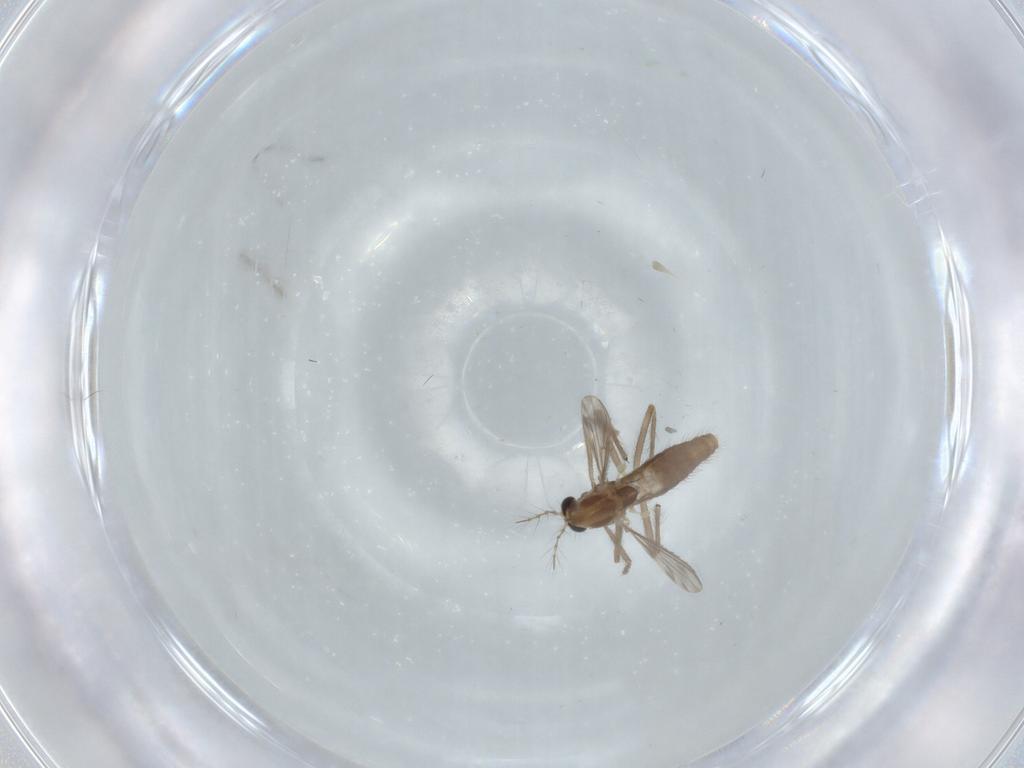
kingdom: Animalia
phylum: Arthropoda
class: Insecta
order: Diptera
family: Chironomidae
